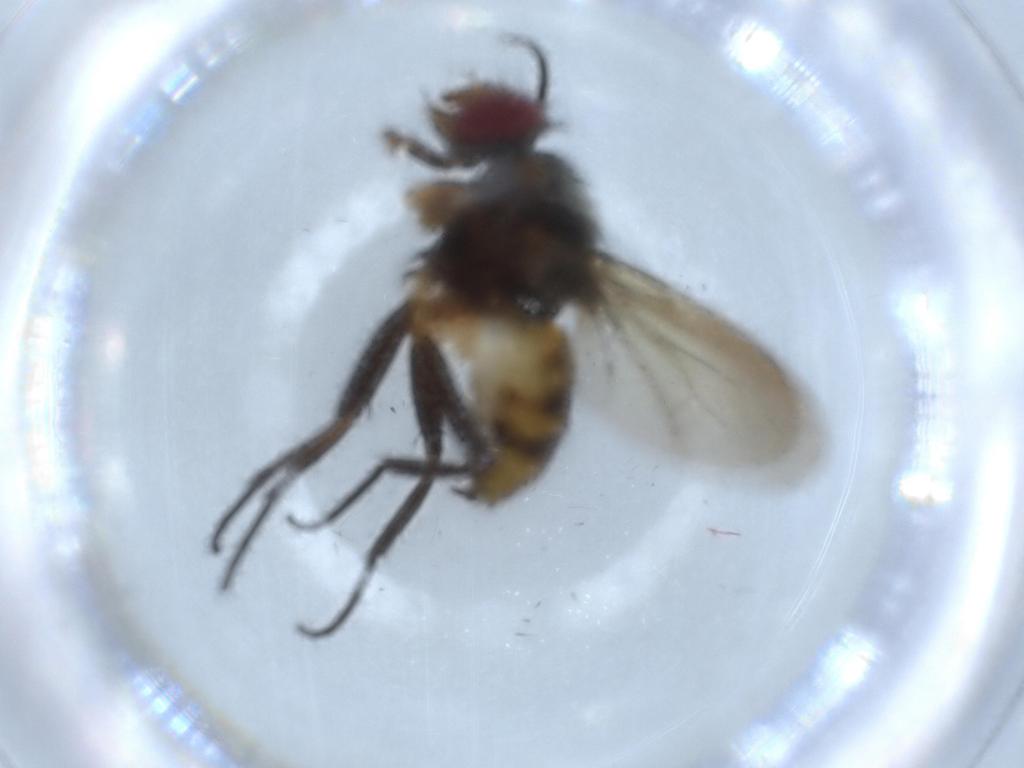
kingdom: Animalia
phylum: Arthropoda
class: Insecta
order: Diptera
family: Anthomyiidae
